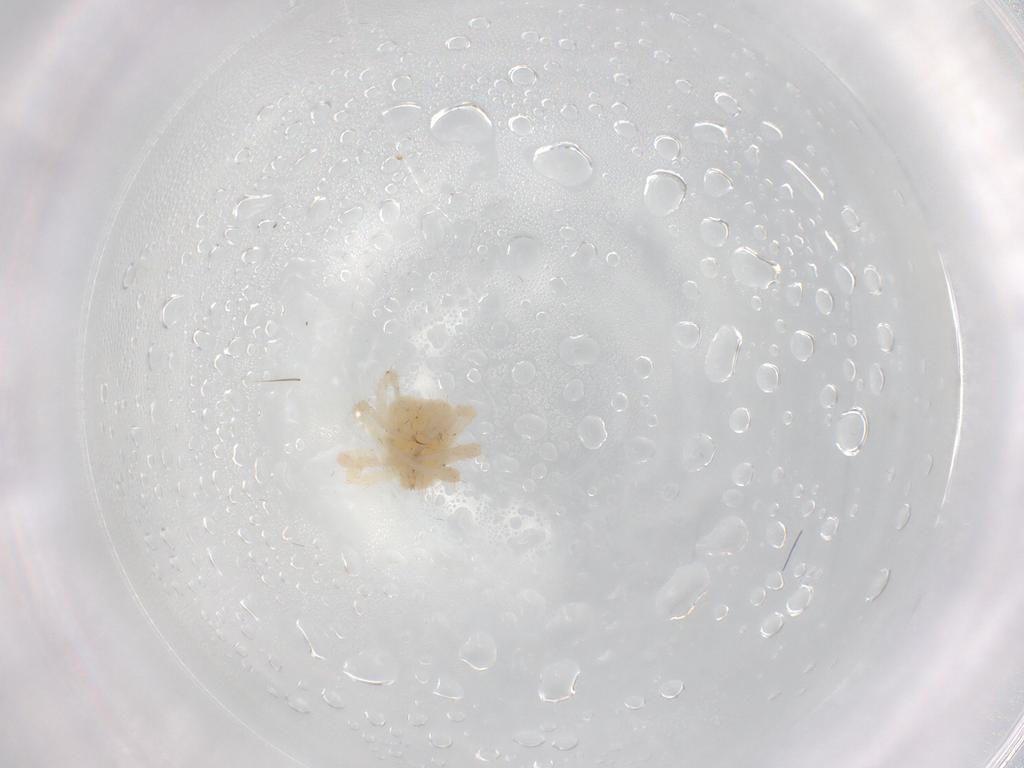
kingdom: Animalia
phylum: Arthropoda
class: Arachnida
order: Trombidiformes
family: Anystidae
